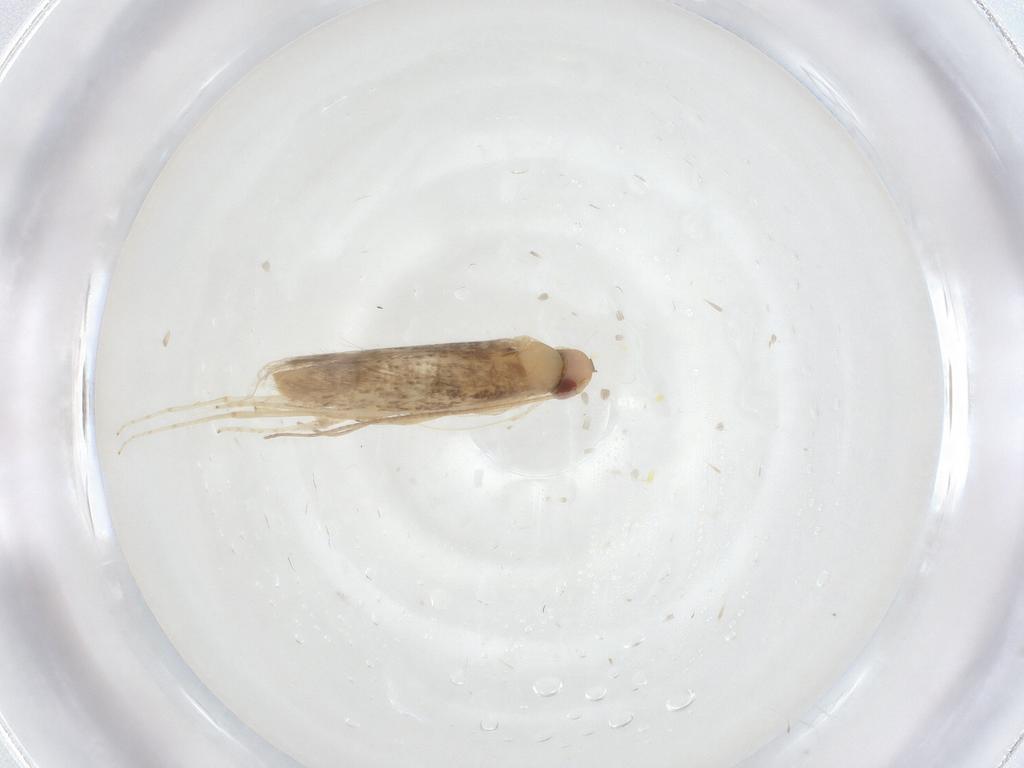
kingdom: Animalia
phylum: Arthropoda
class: Insecta
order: Lepidoptera
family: Gracillariidae
